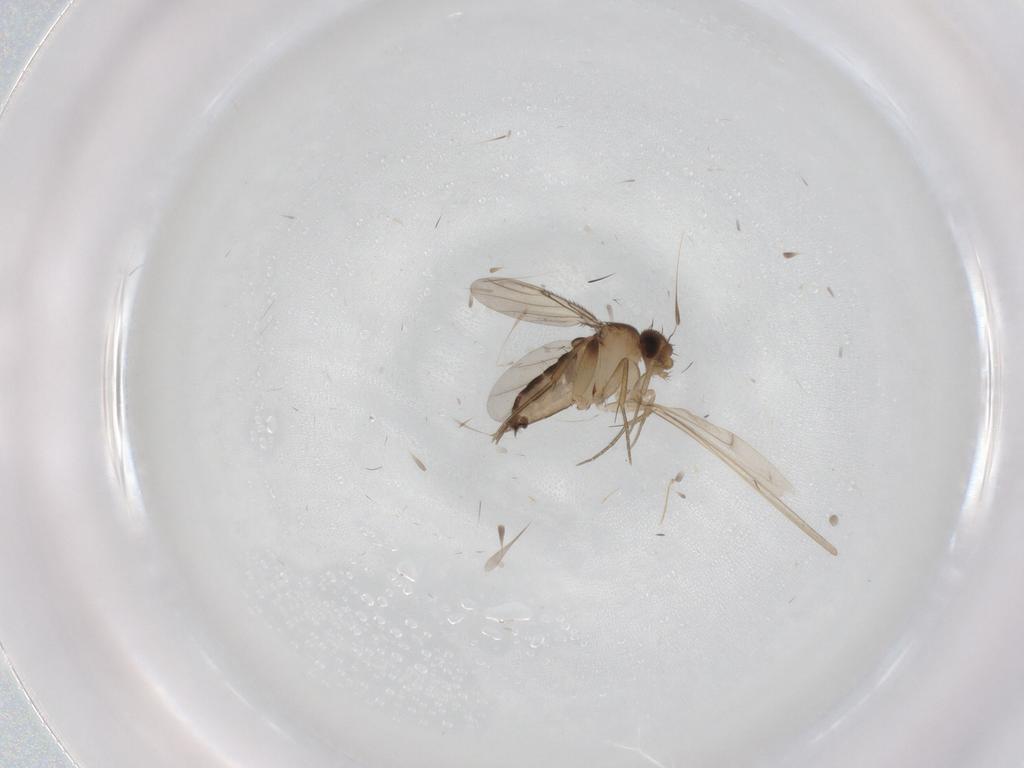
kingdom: Animalia
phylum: Arthropoda
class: Insecta
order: Diptera
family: Phoridae
